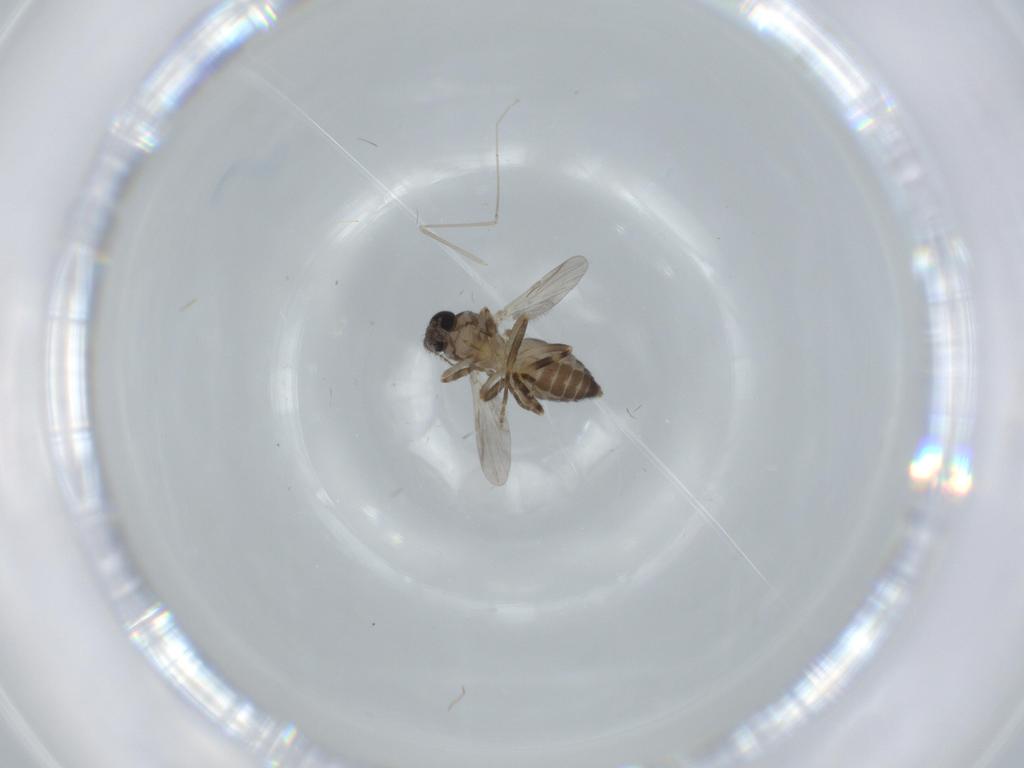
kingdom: Animalia
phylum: Arthropoda
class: Insecta
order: Diptera
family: Ceratopogonidae
